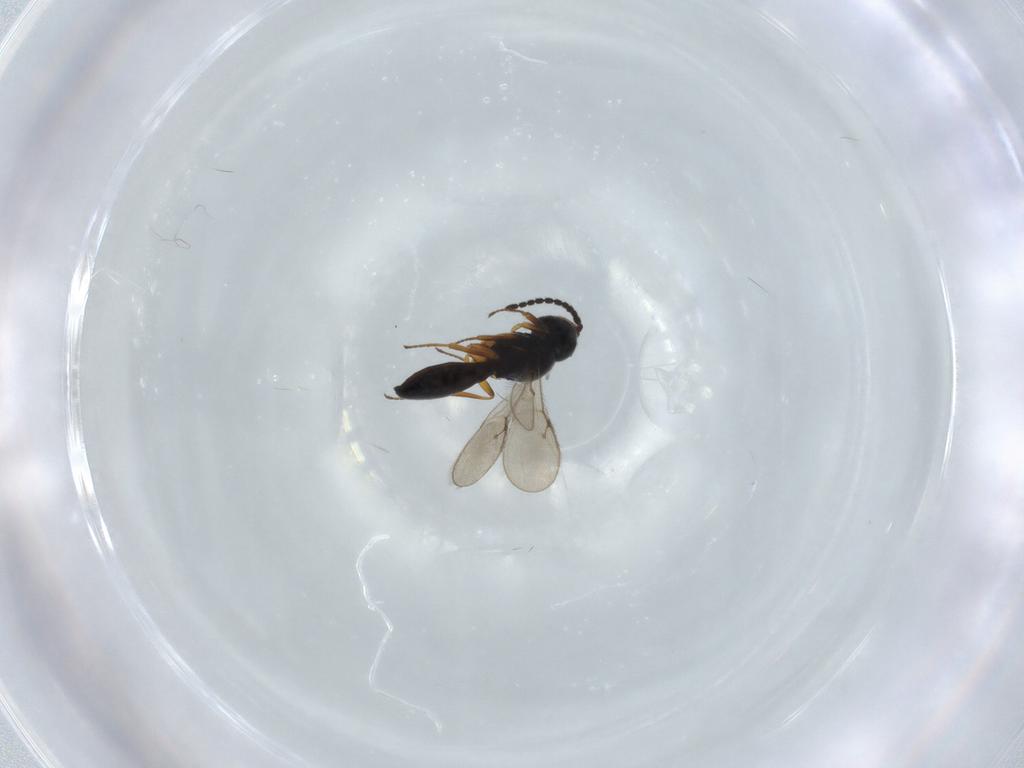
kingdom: Animalia
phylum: Arthropoda
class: Insecta
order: Hymenoptera
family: Scelionidae
